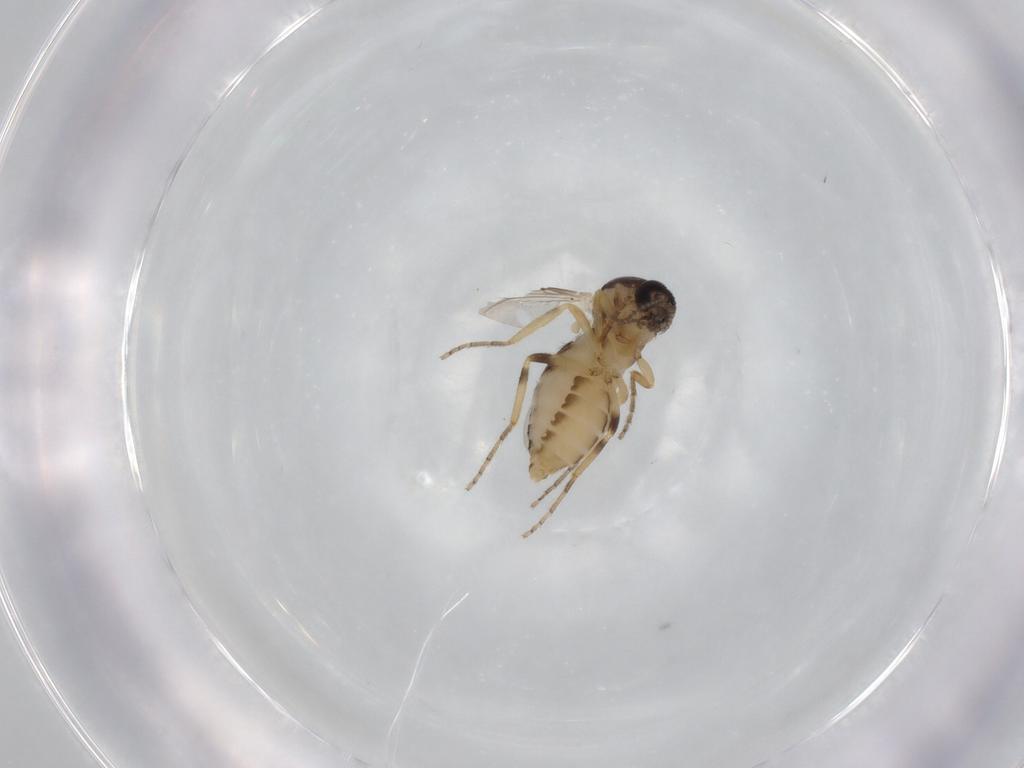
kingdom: Animalia
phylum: Arthropoda
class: Insecta
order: Diptera
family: Ceratopogonidae
